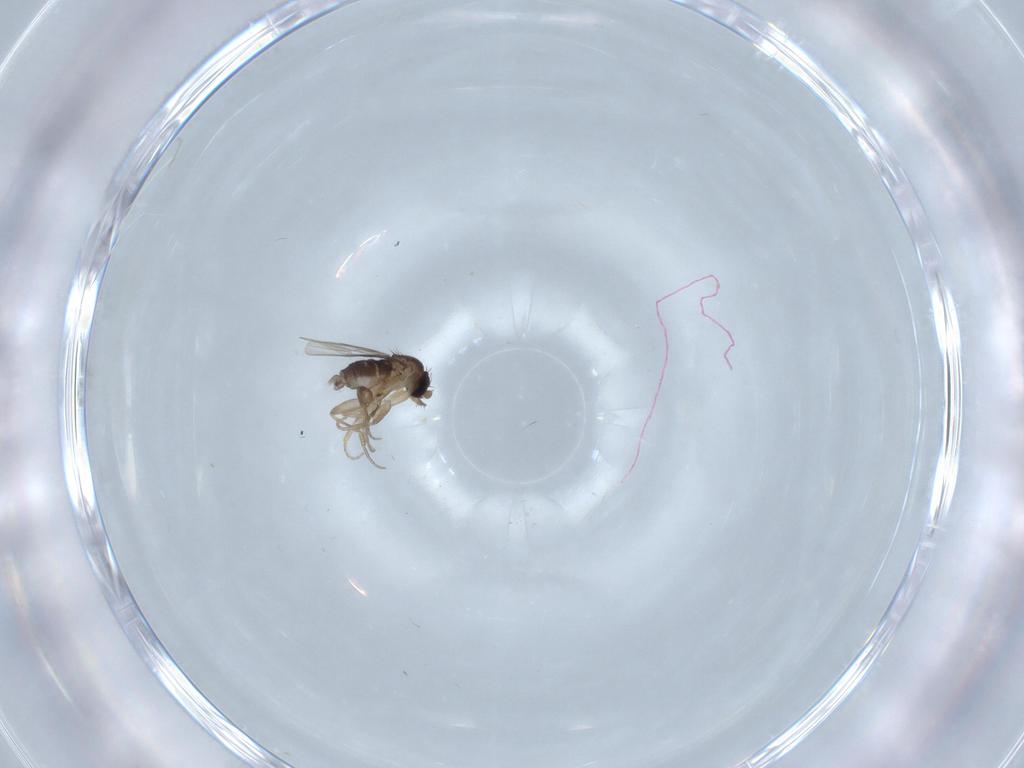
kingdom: Animalia
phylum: Arthropoda
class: Insecta
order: Diptera
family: Phoridae
